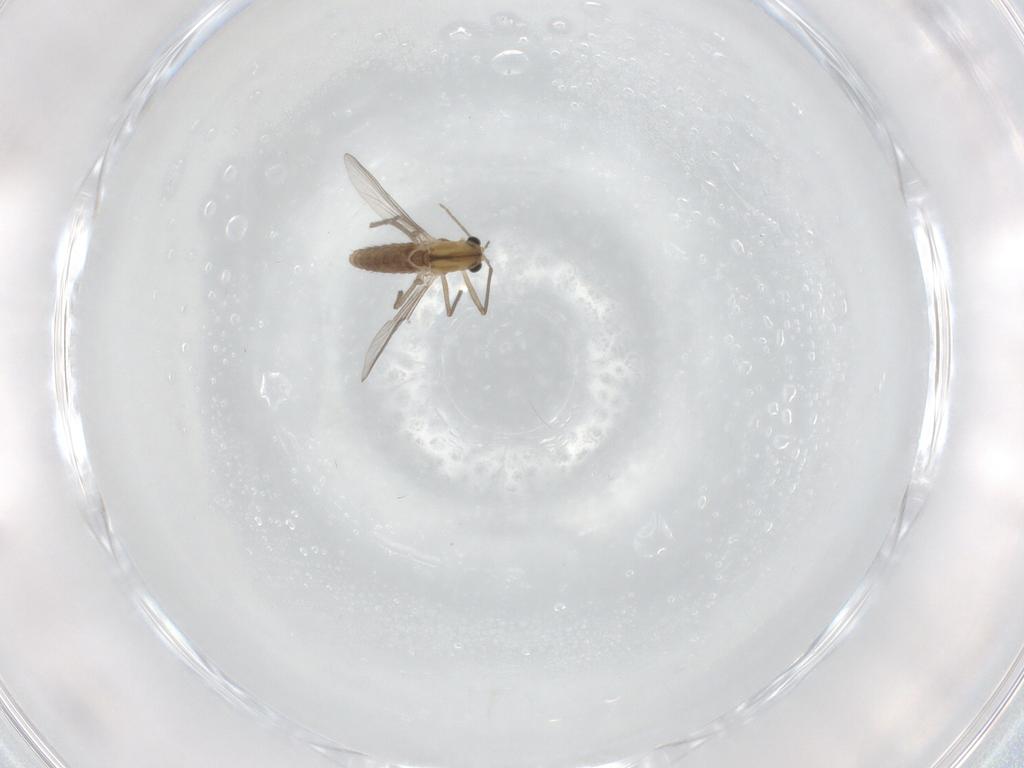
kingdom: Animalia
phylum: Arthropoda
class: Insecta
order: Diptera
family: Chironomidae
